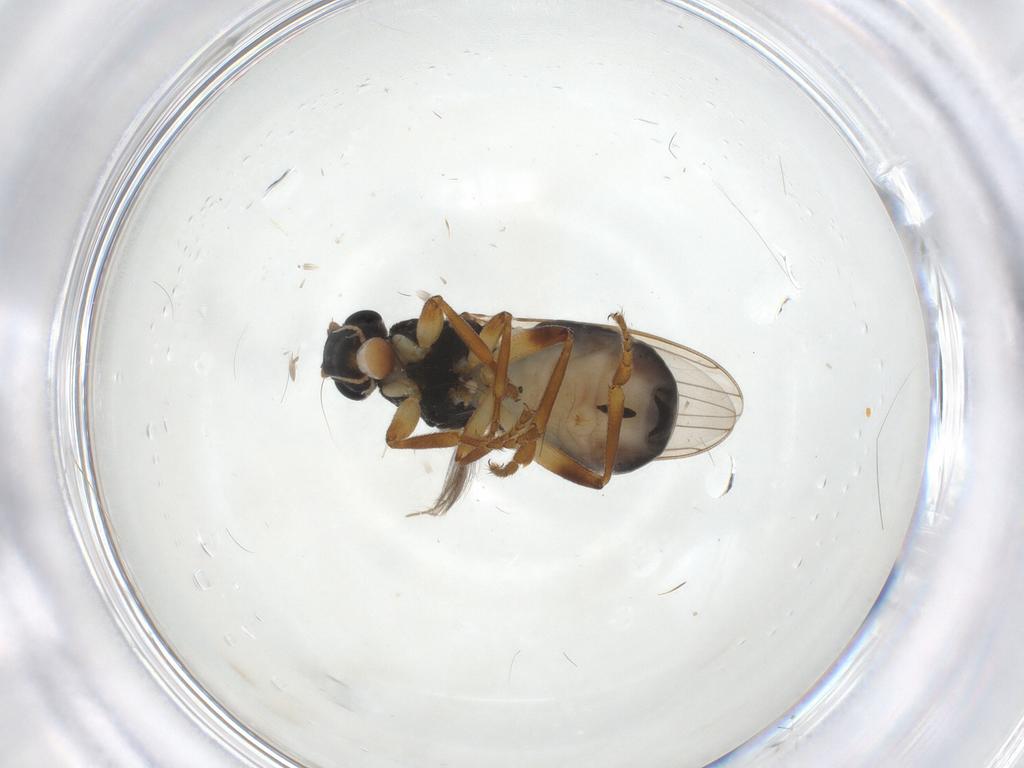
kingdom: Animalia
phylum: Arthropoda
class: Insecta
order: Diptera
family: Sphaeroceridae
